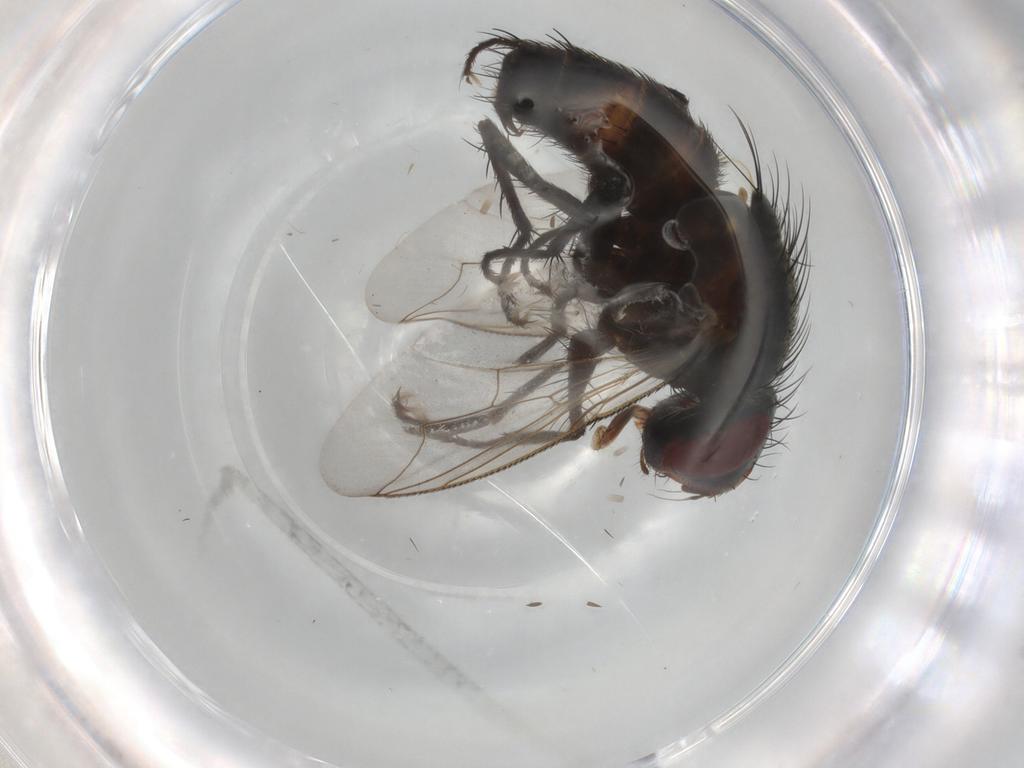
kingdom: Animalia
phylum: Arthropoda
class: Insecta
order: Diptera
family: Sarcophagidae
